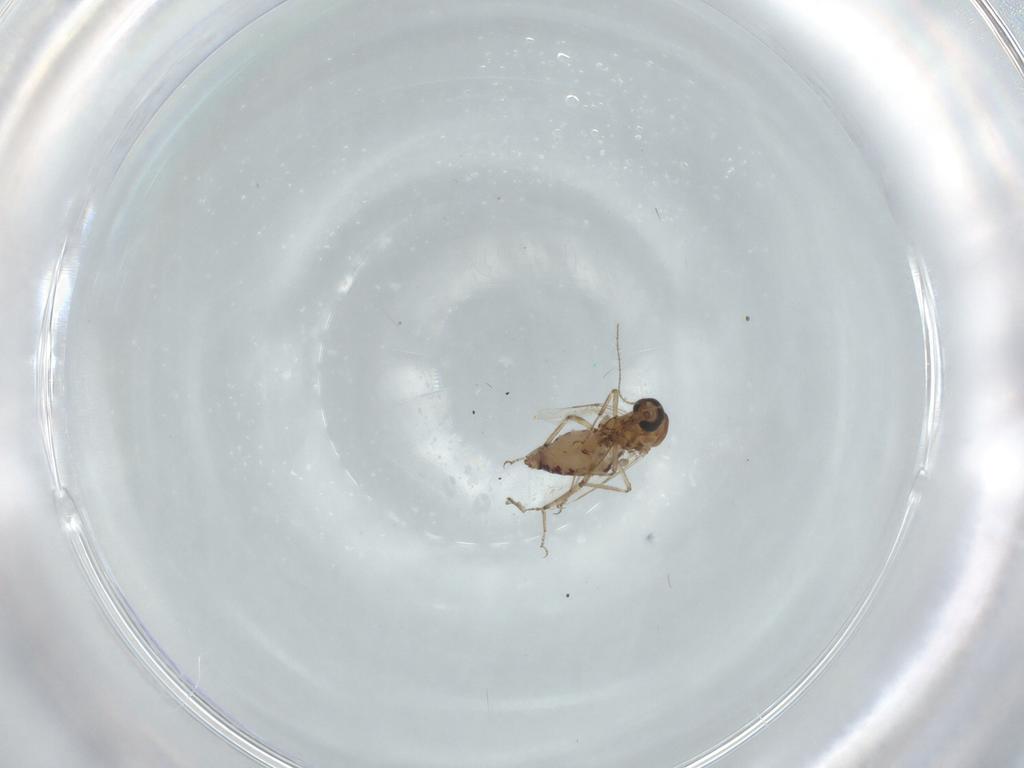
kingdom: Animalia
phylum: Arthropoda
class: Insecta
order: Diptera
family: Ceratopogonidae
